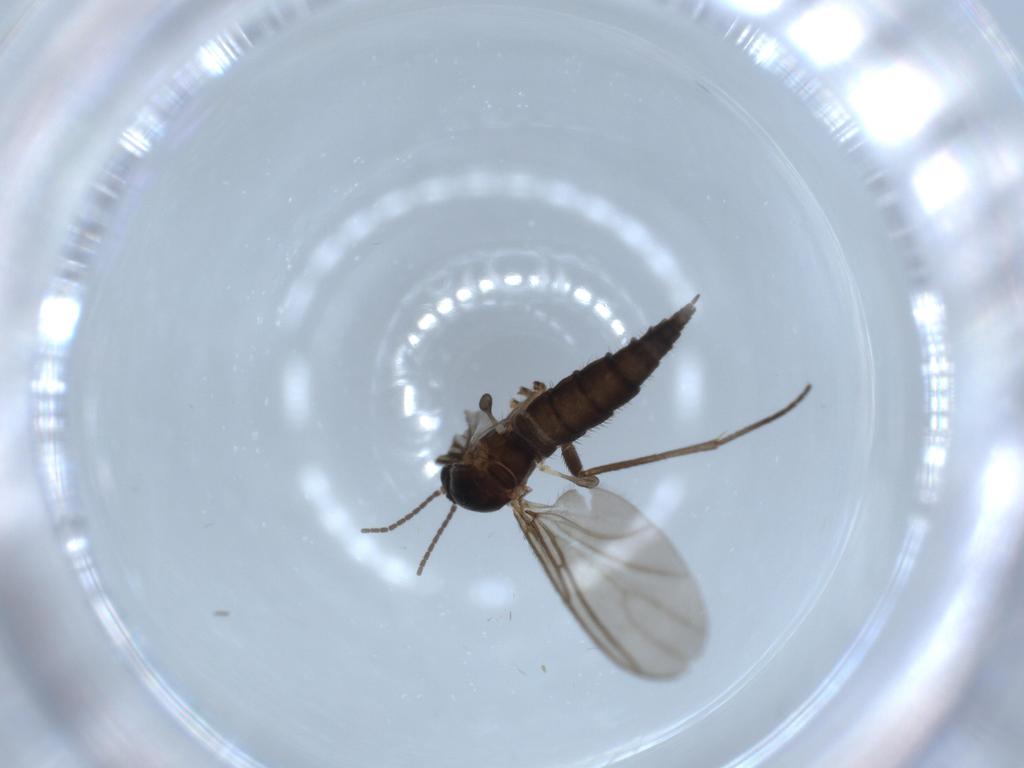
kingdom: Animalia
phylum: Arthropoda
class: Insecta
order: Diptera
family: Sciaridae
